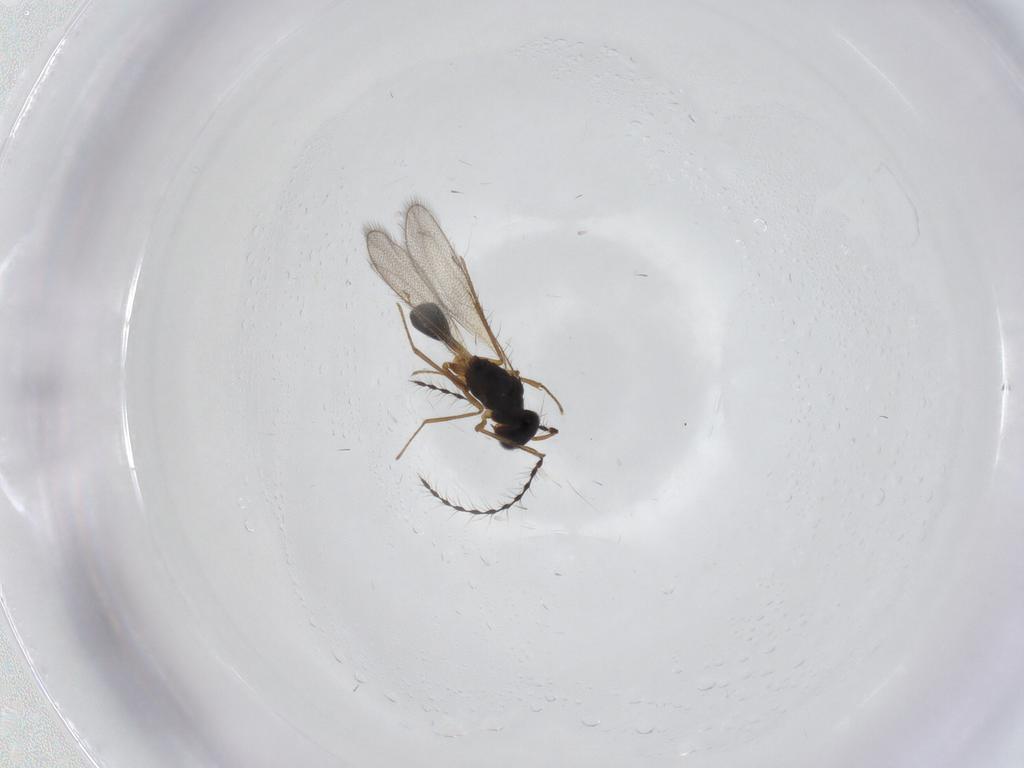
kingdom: Animalia
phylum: Arthropoda
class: Insecta
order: Hymenoptera
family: Diparidae
